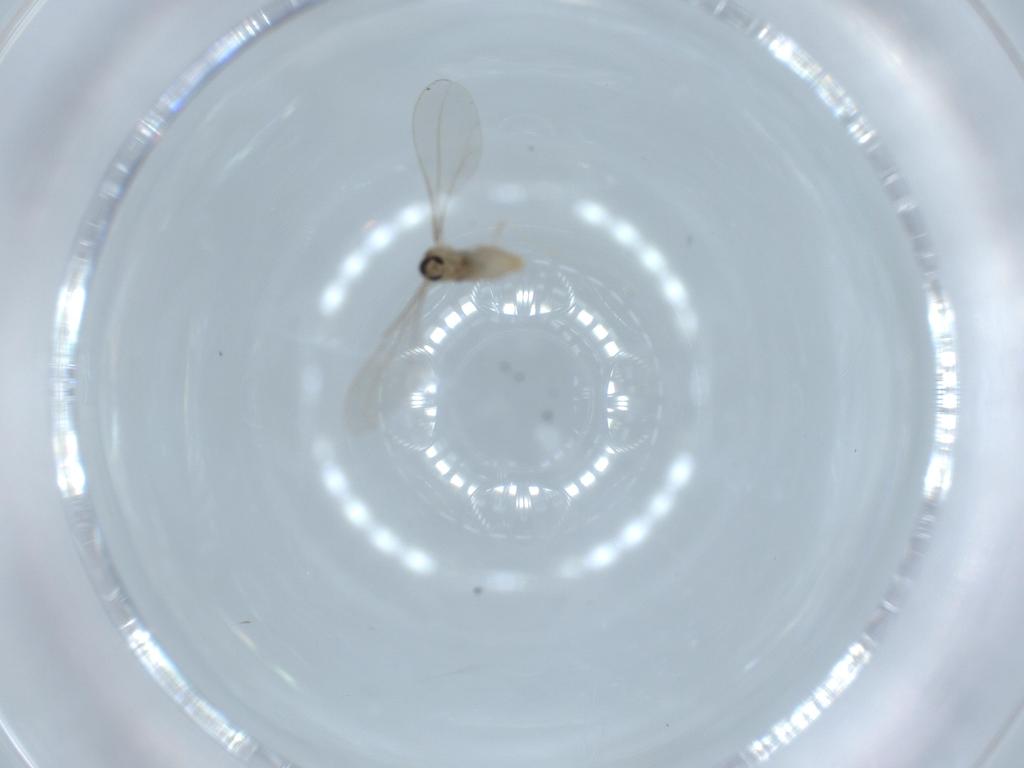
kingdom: Animalia
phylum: Arthropoda
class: Insecta
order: Diptera
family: Cecidomyiidae
